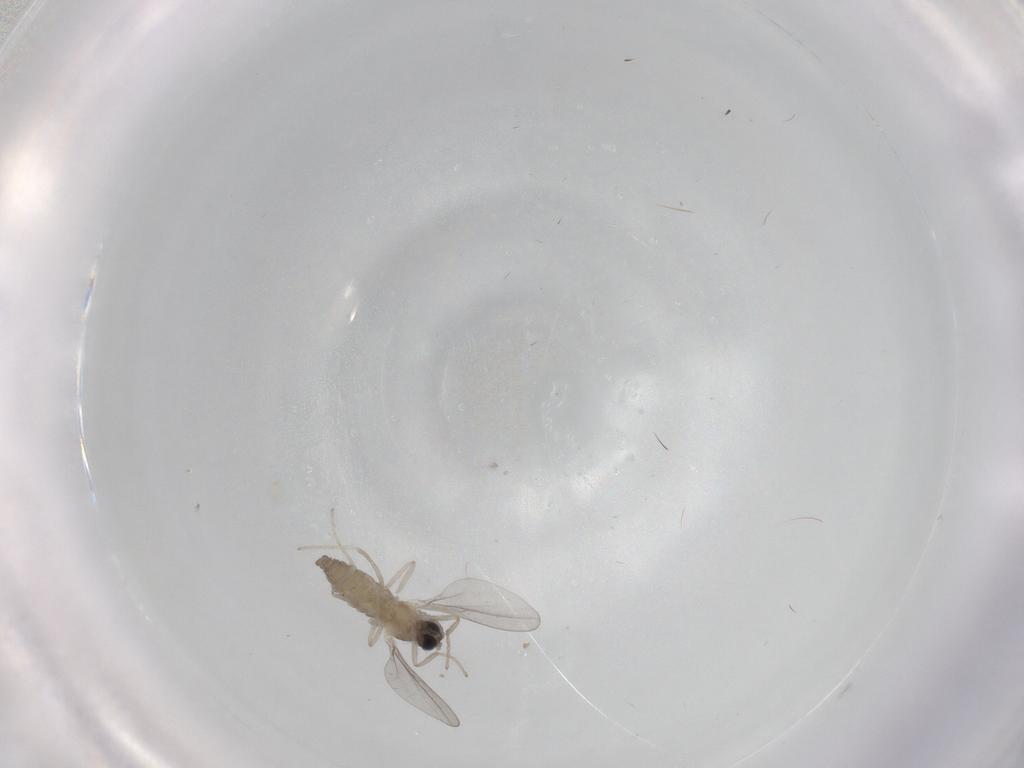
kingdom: Animalia
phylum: Arthropoda
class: Insecta
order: Diptera
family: Cecidomyiidae
